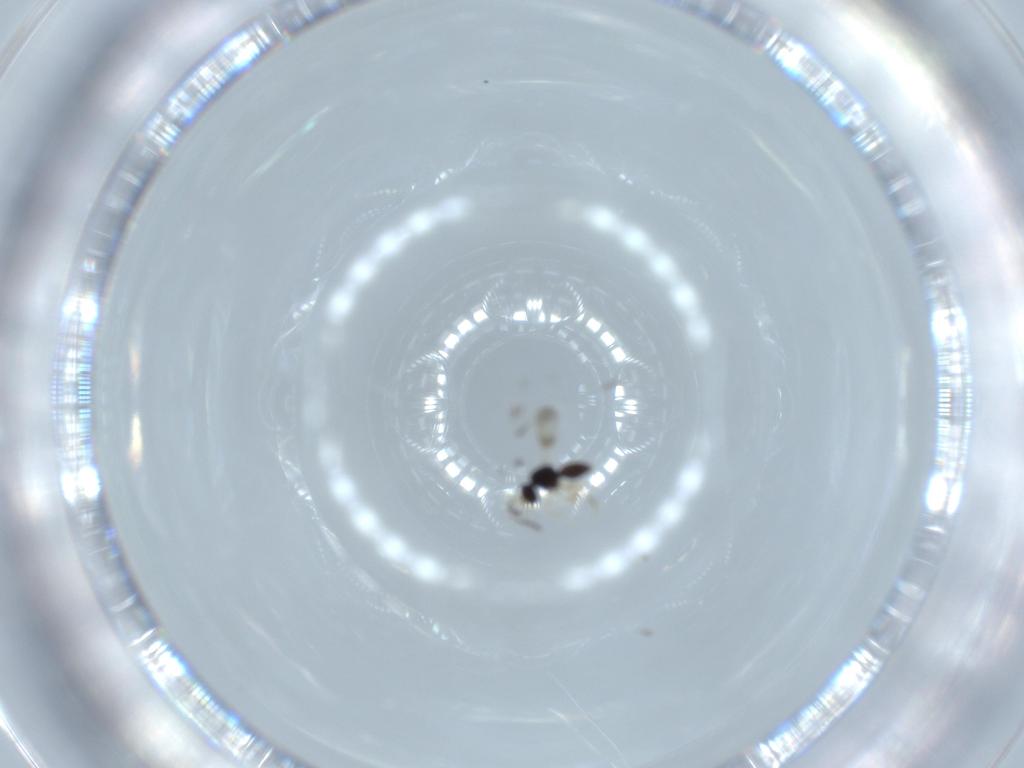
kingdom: Animalia
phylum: Arthropoda
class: Insecta
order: Hymenoptera
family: Ceraphronidae
